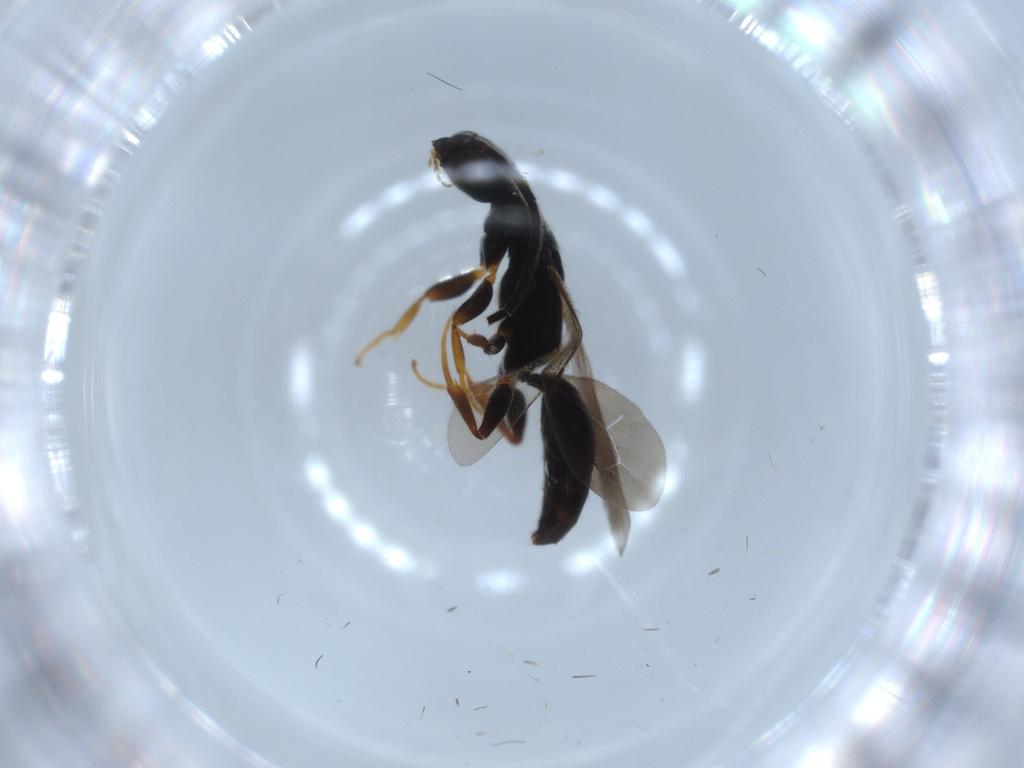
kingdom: Animalia
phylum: Arthropoda
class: Insecta
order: Hymenoptera
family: Bethylidae
